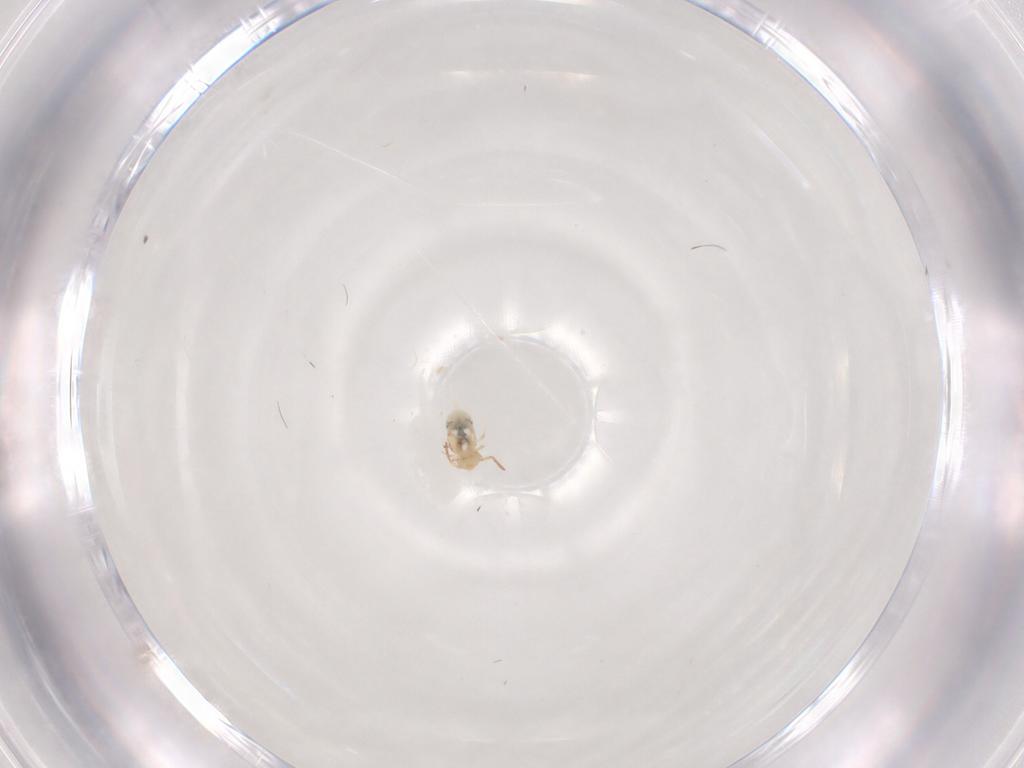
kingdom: Animalia
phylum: Arthropoda
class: Collembola
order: Symphypleona
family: Bourletiellidae
